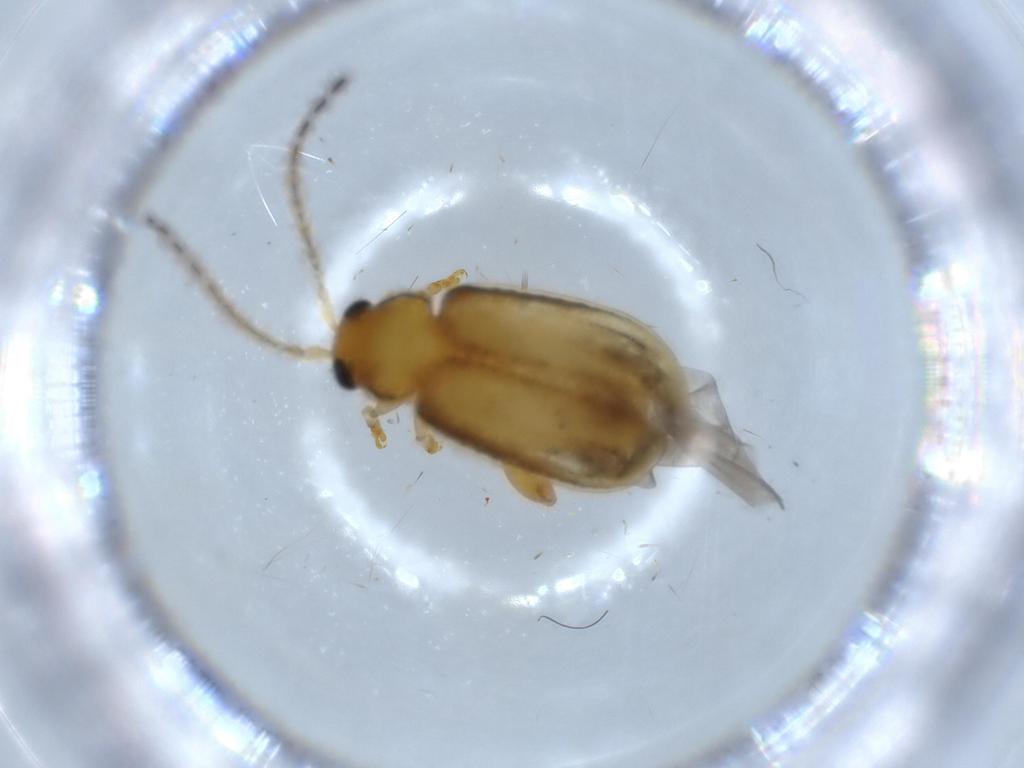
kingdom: Animalia
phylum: Arthropoda
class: Insecta
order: Coleoptera
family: Chrysomelidae
